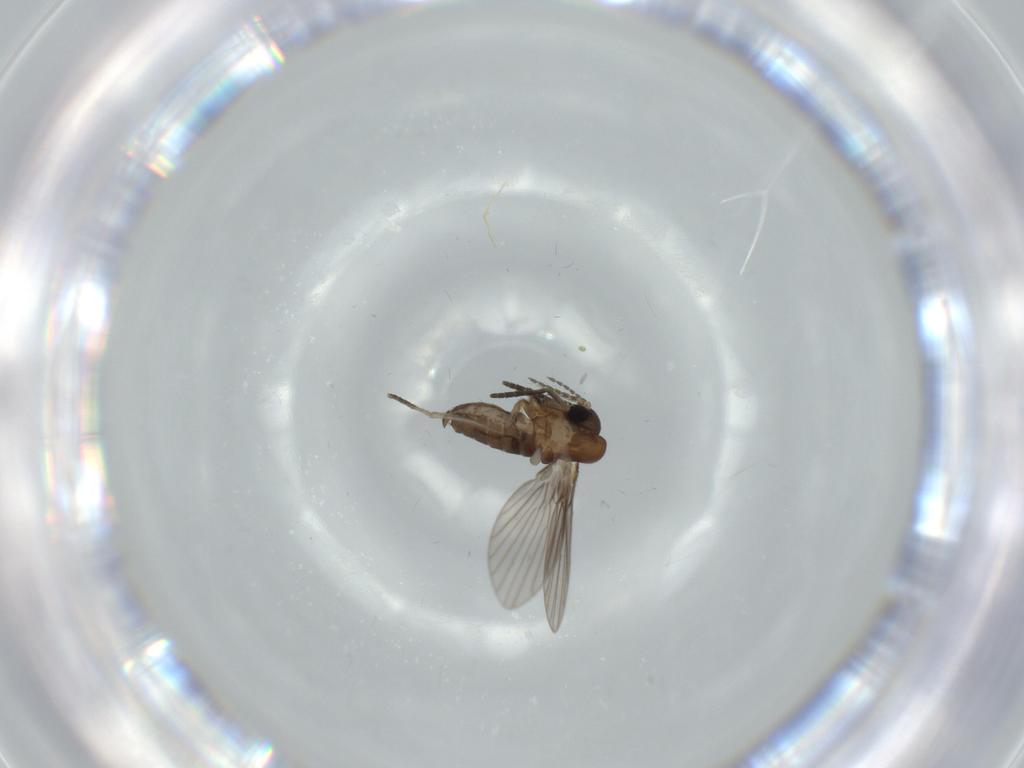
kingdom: Animalia
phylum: Arthropoda
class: Insecta
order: Diptera
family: Psychodidae
